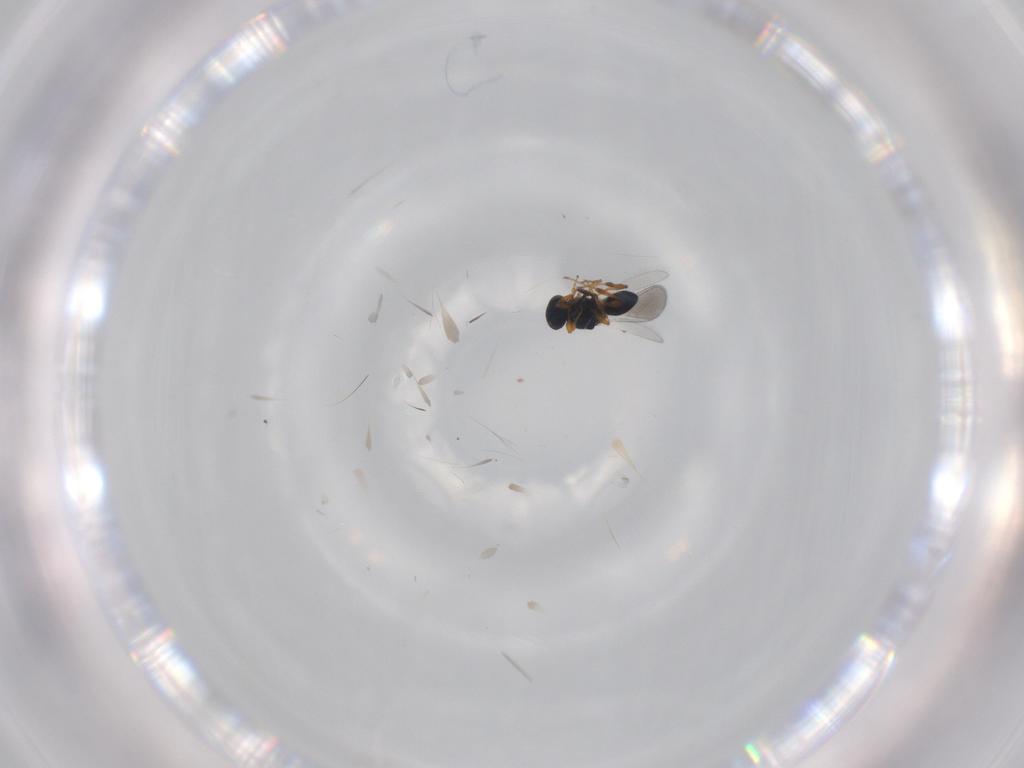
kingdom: Animalia
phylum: Arthropoda
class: Insecta
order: Hymenoptera
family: Platygastridae
